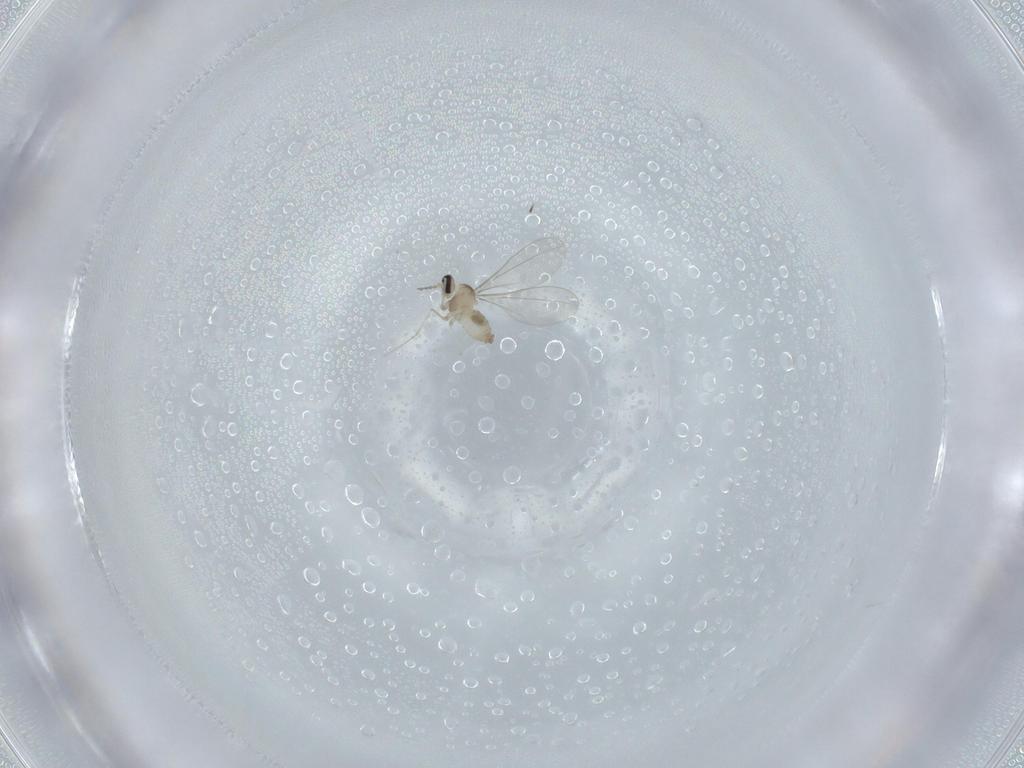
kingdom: Animalia
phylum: Arthropoda
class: Insecta
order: Diptera
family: Cecidomyiidae
